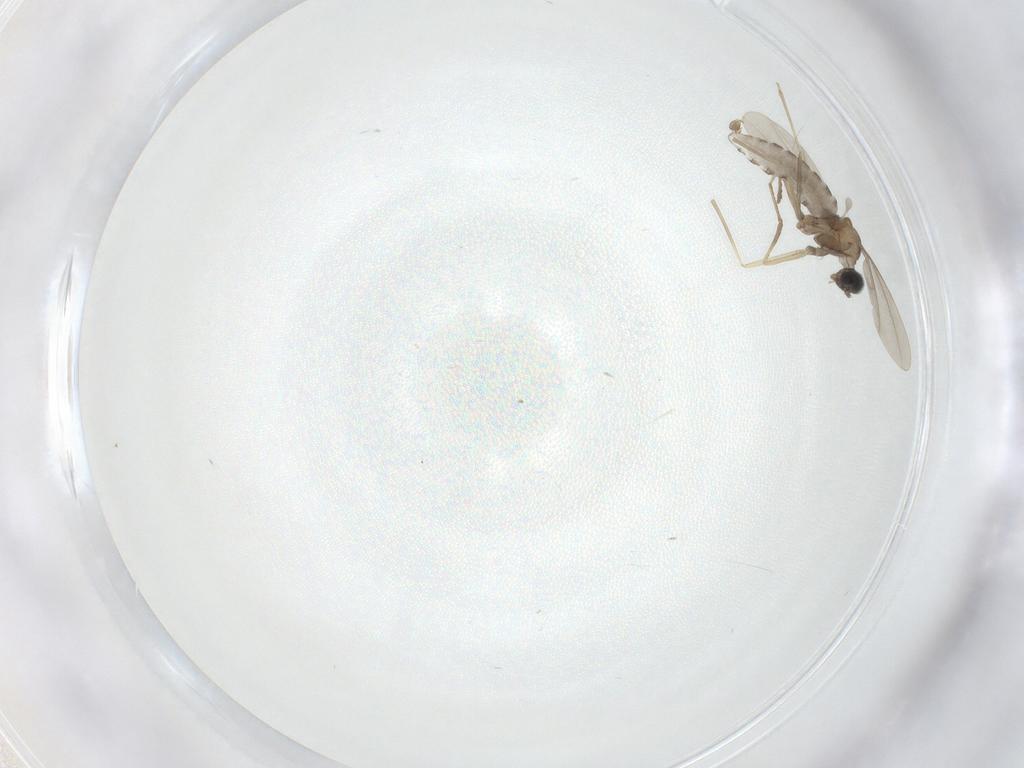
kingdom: Animalia
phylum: Arthropoda
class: Insecta
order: Diptera
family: Cecidomyiidae
